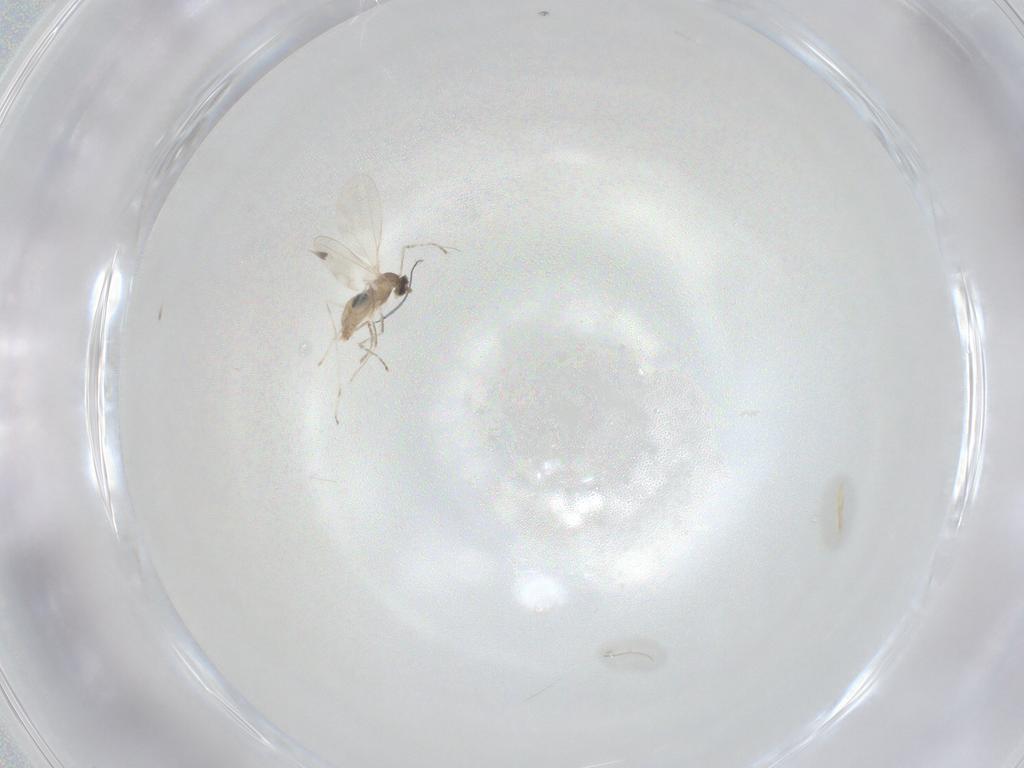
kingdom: Animalia
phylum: Arthropoda
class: Insecta
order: Diptera
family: Cecidomyiidae
